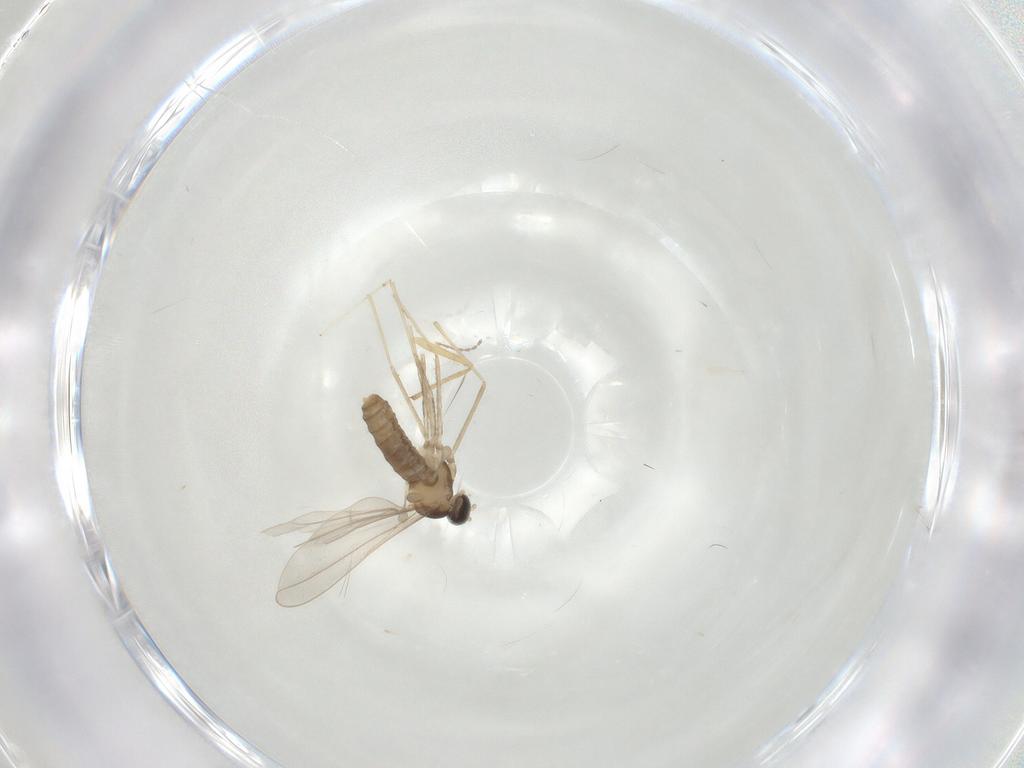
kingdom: Animalia
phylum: Arthropoda
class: Insecta
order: Diptera
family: Cecidomyiidae
